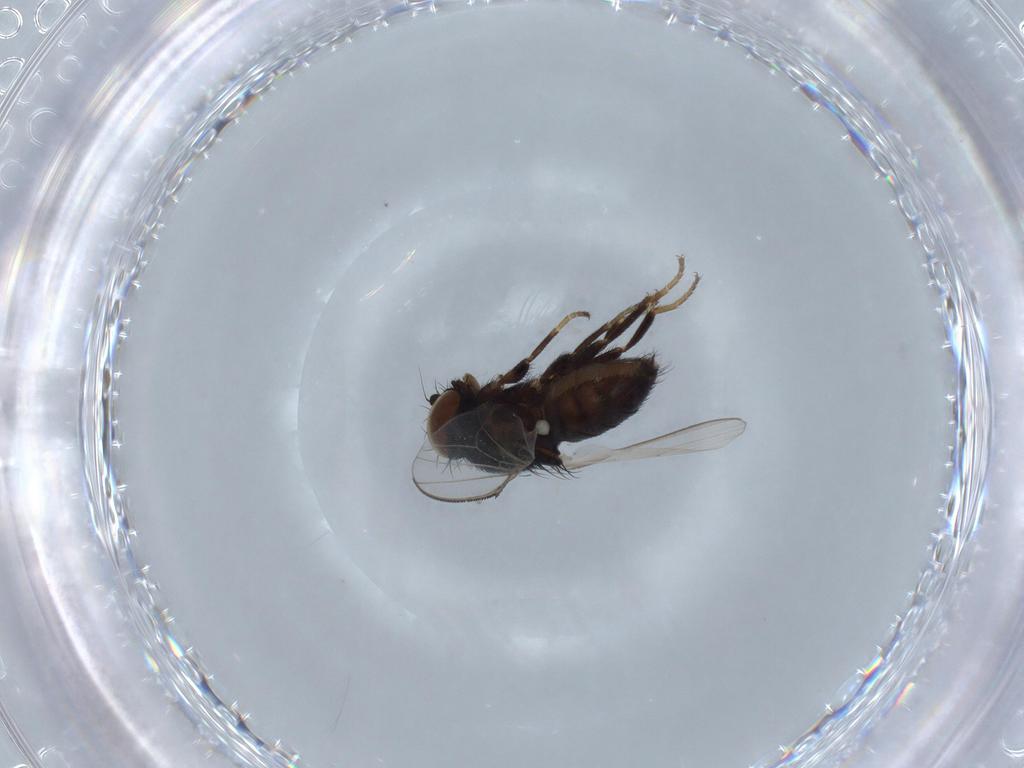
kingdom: Animalia
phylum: Arthropoda
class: Insecta
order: Diptera
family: Milichiidae
